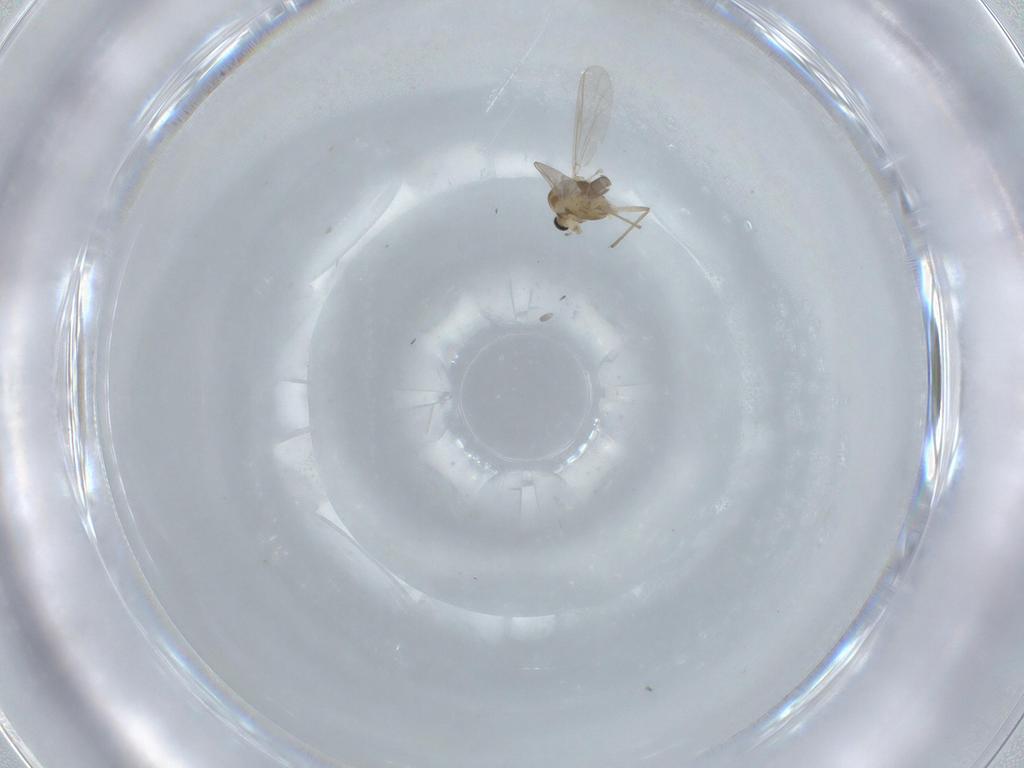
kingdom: Animalia
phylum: Arthropoda
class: Insecta
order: Diptera
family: Chironomidae
